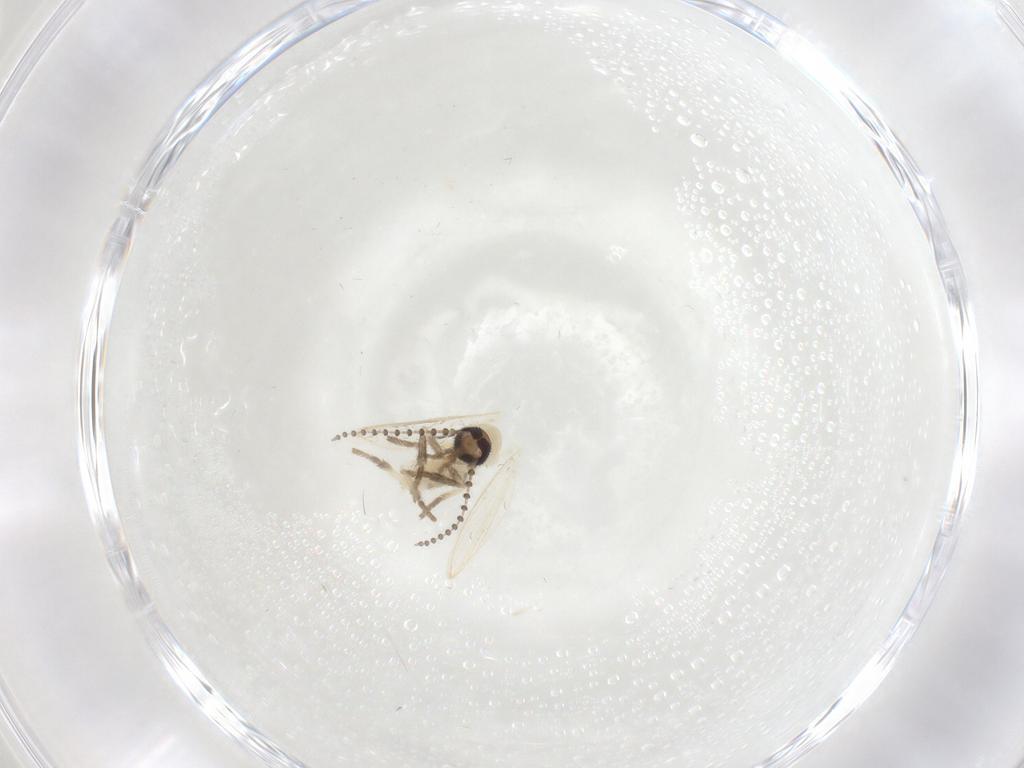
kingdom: Animalia
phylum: Arthropoda
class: Insecta
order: Diptera
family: Psychodidae
